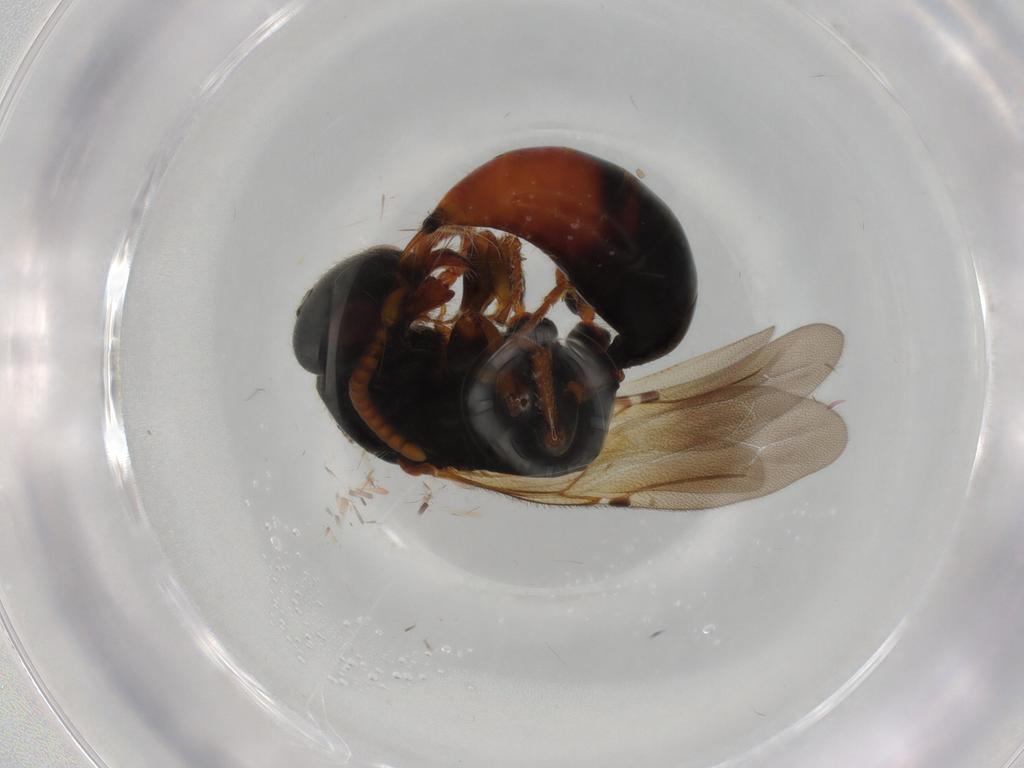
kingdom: Animalia
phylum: Arthropoda
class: Insecta
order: Hymenoptera
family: Bethylidae
